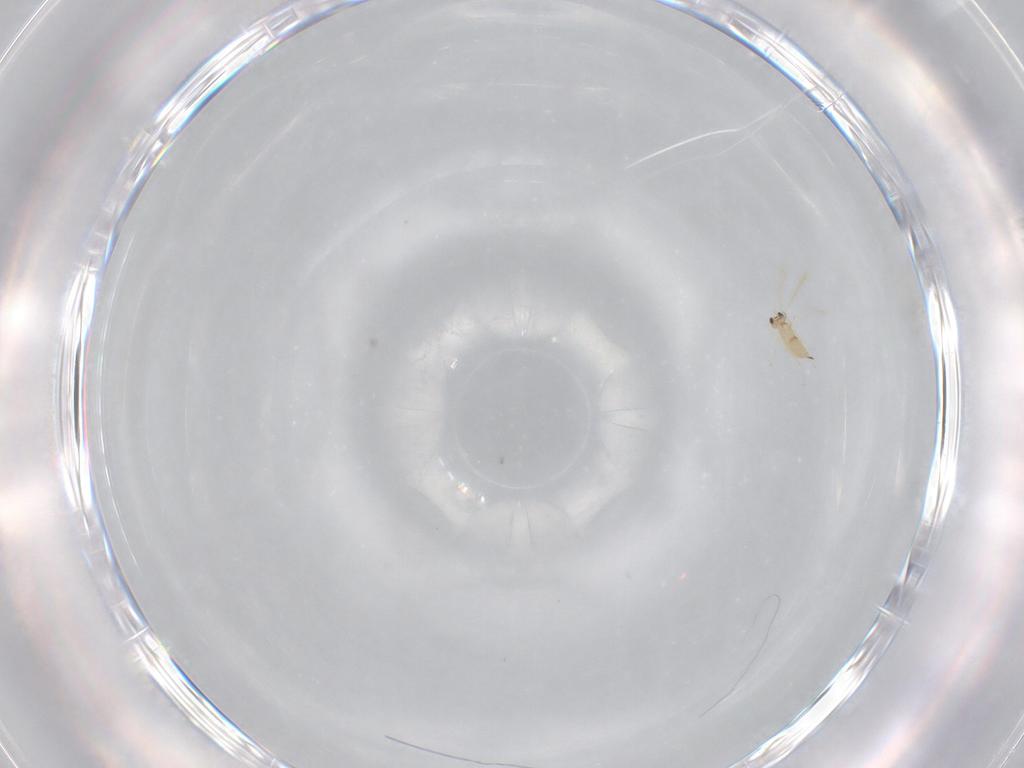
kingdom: Animalia
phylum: Arthropoda
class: Insecta
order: Hymenoptera
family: Mymaridae
